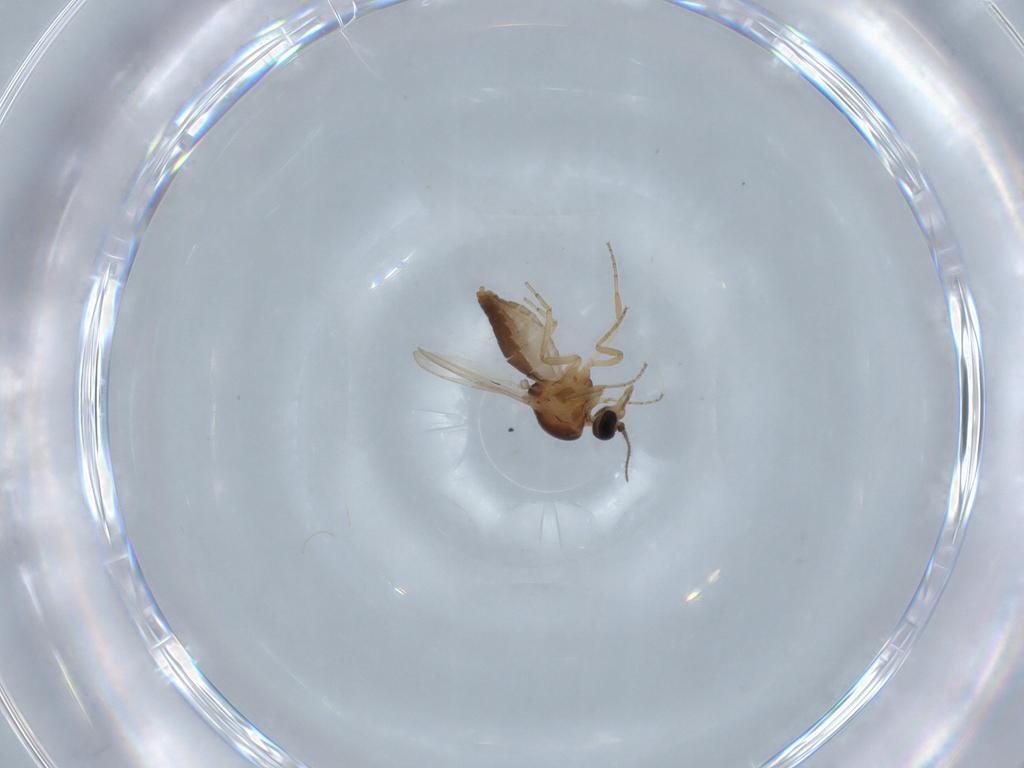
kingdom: Animalia
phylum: Arthropoda
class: Insecta
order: Diptera
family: Ceratopogonidae
